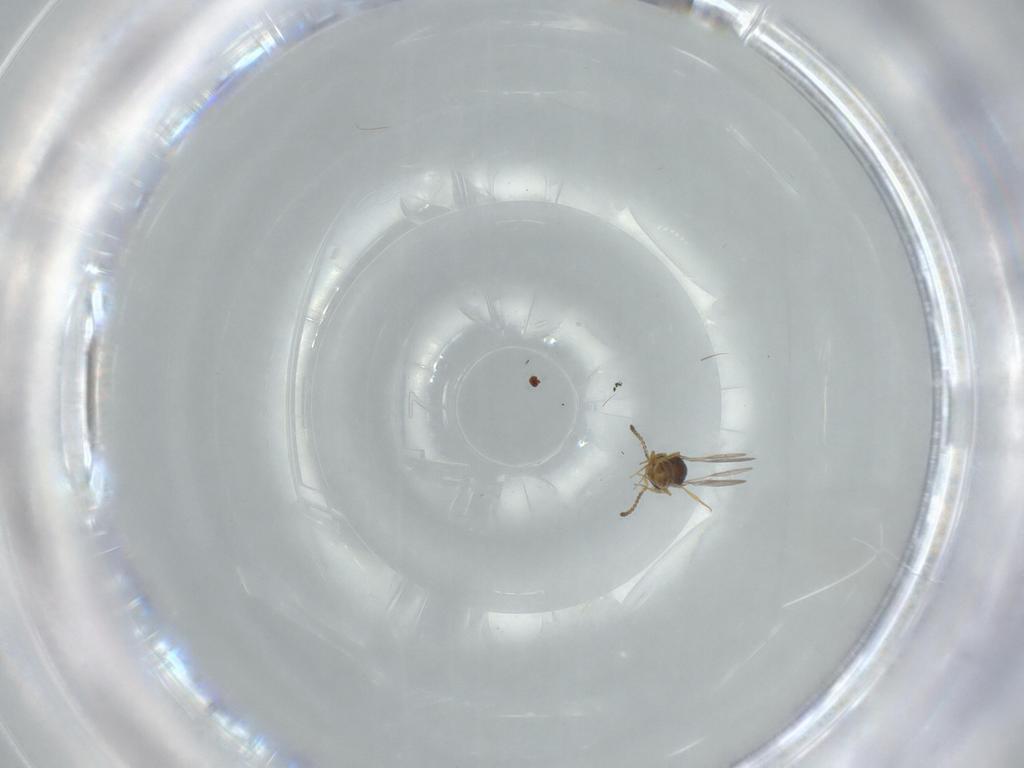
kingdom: Animalia
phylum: Arthropoda
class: Insecta
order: Hymenoptera
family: Scelionidae
